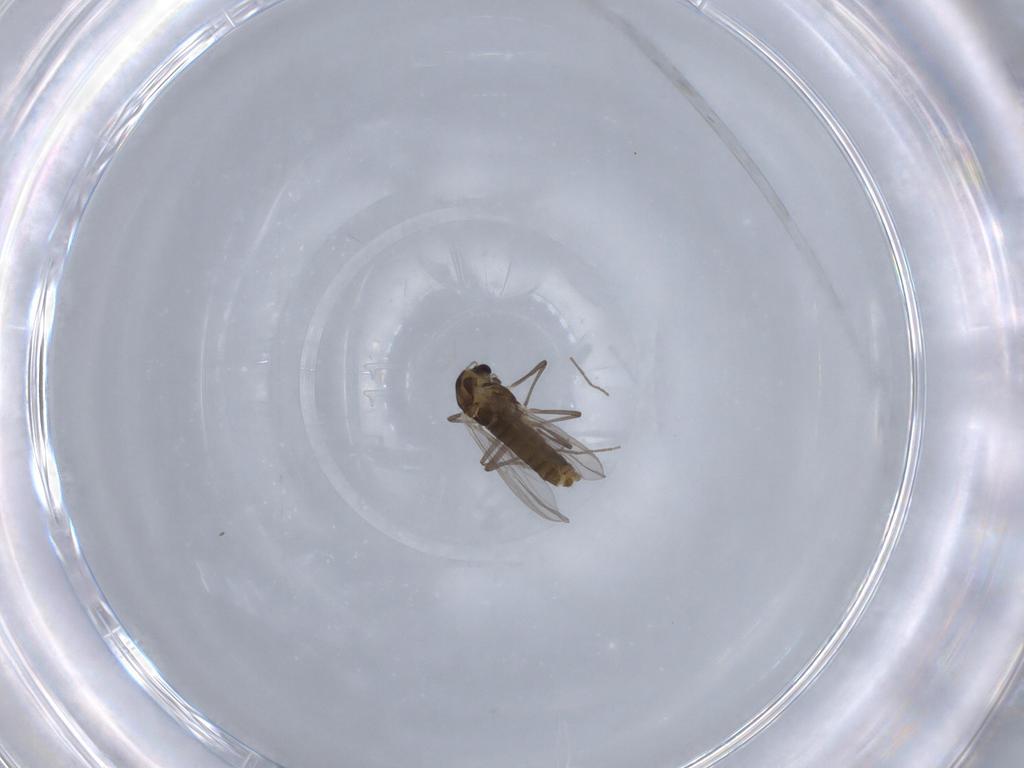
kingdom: Animalia
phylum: Arthropoda
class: Insecta
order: Diptera
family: Chironomidae
